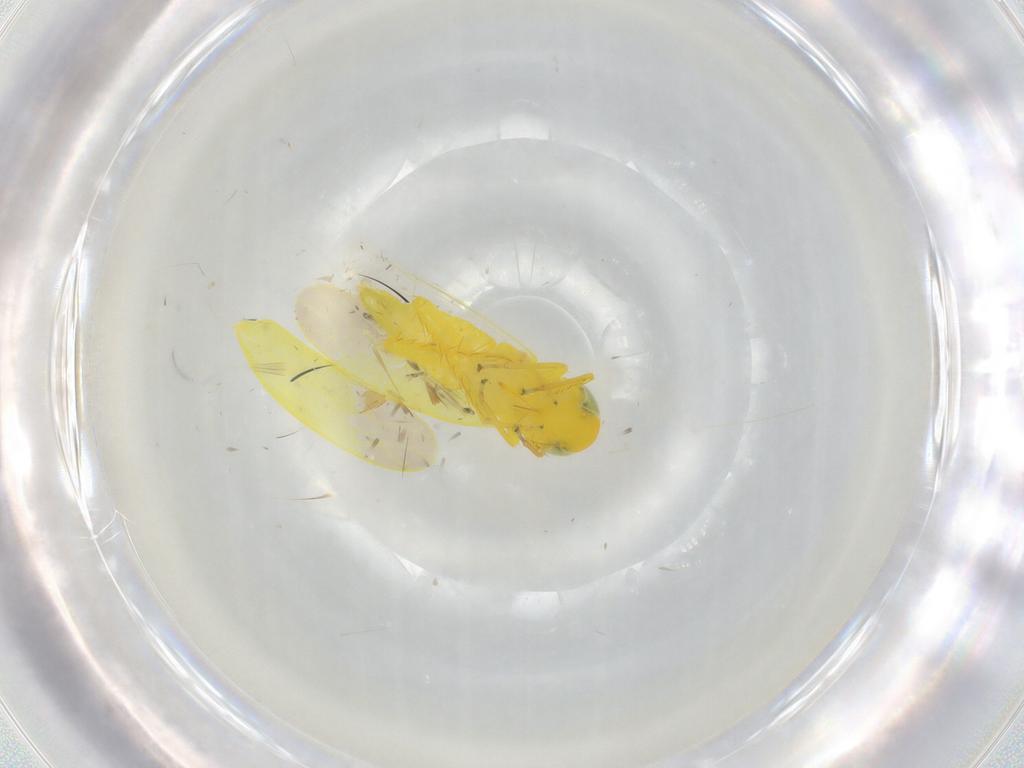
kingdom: Animalia
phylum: Arthropoda
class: Insecta
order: Hemiptera
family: Cicadellidae
